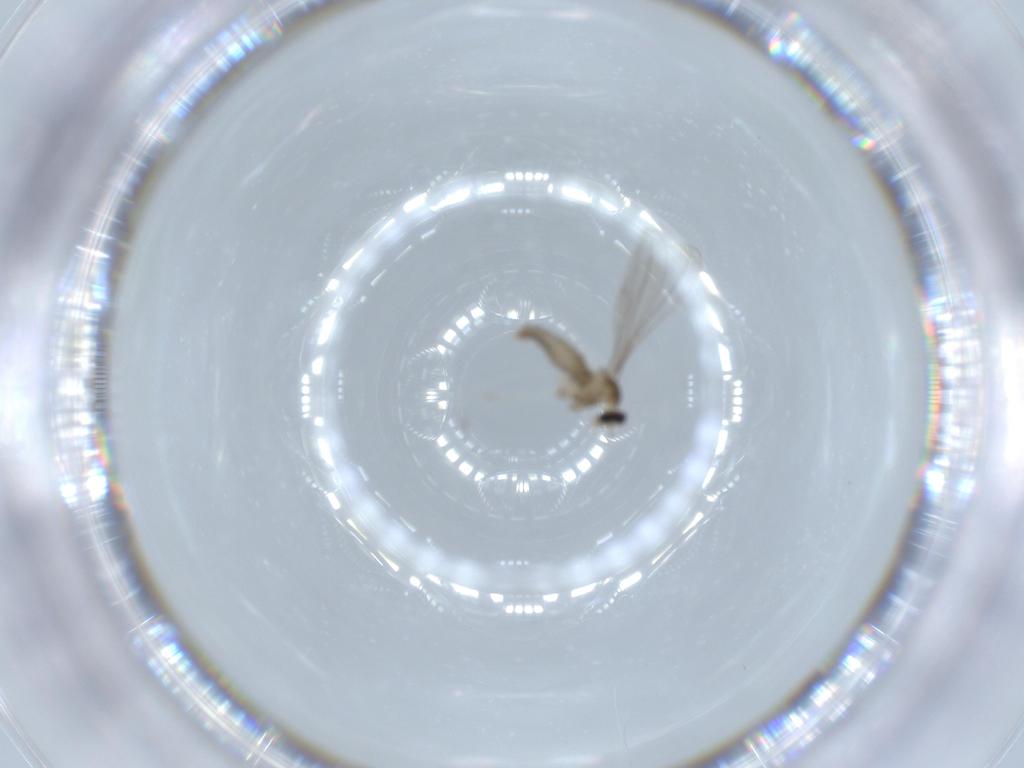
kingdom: Animalia
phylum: Arthropoda
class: Insecta
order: Diptera
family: Cecidomyiidae
